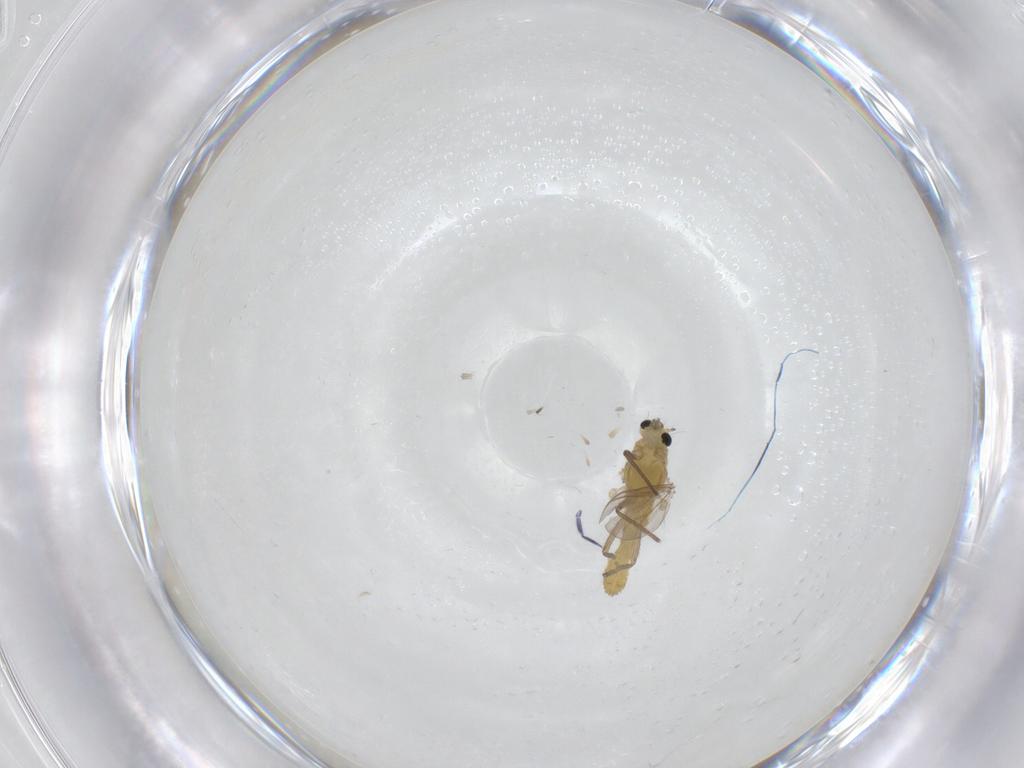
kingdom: Animalia
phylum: Arthropoda
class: Insecta
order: Diptera
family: Chironomidae
